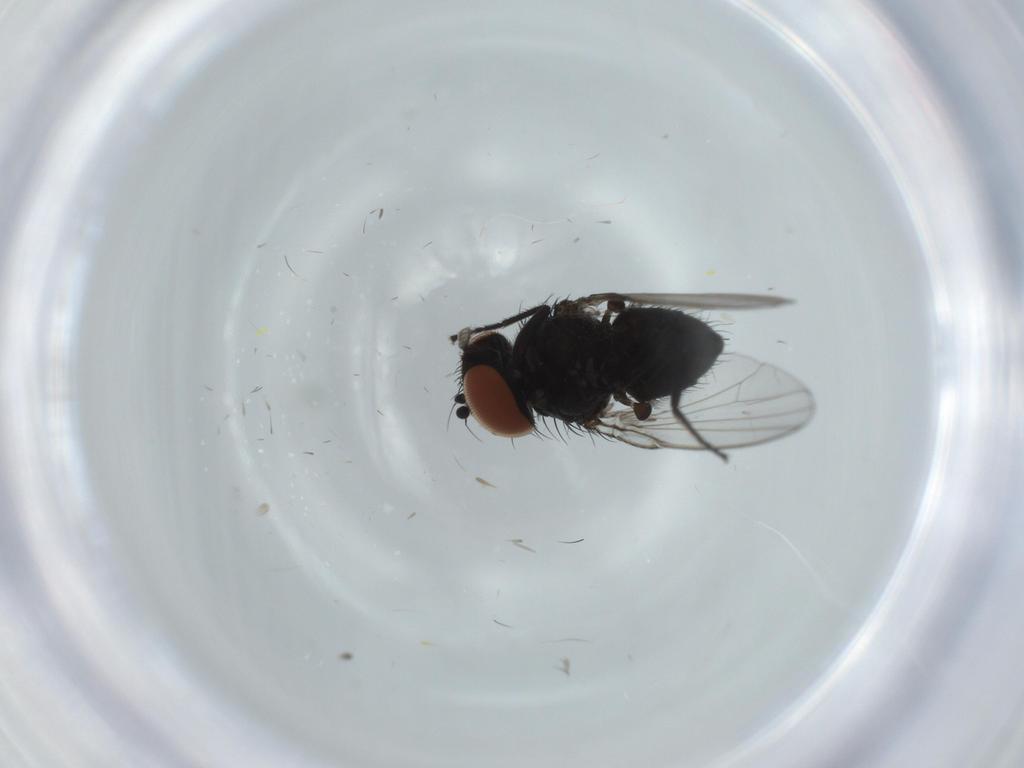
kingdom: Animalia
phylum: Arthropoda
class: Insecta
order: Diptera
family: Milichiidae
